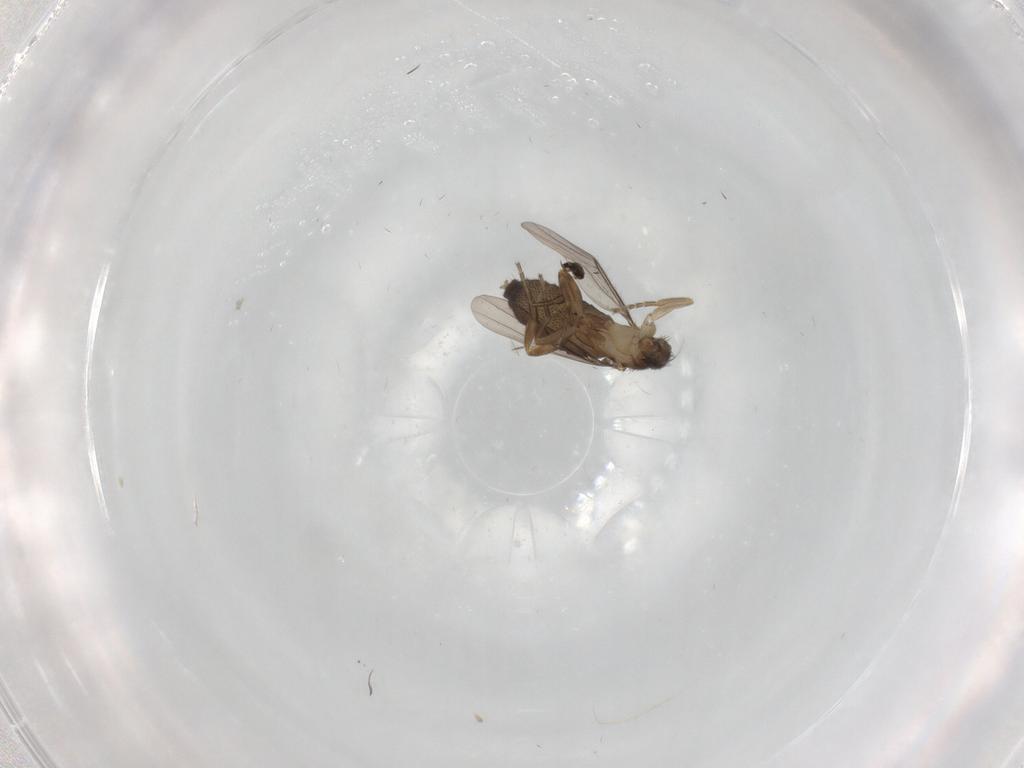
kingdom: Animalia
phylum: Arthropoda
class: Insecta
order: Diptera
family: Phoridae
